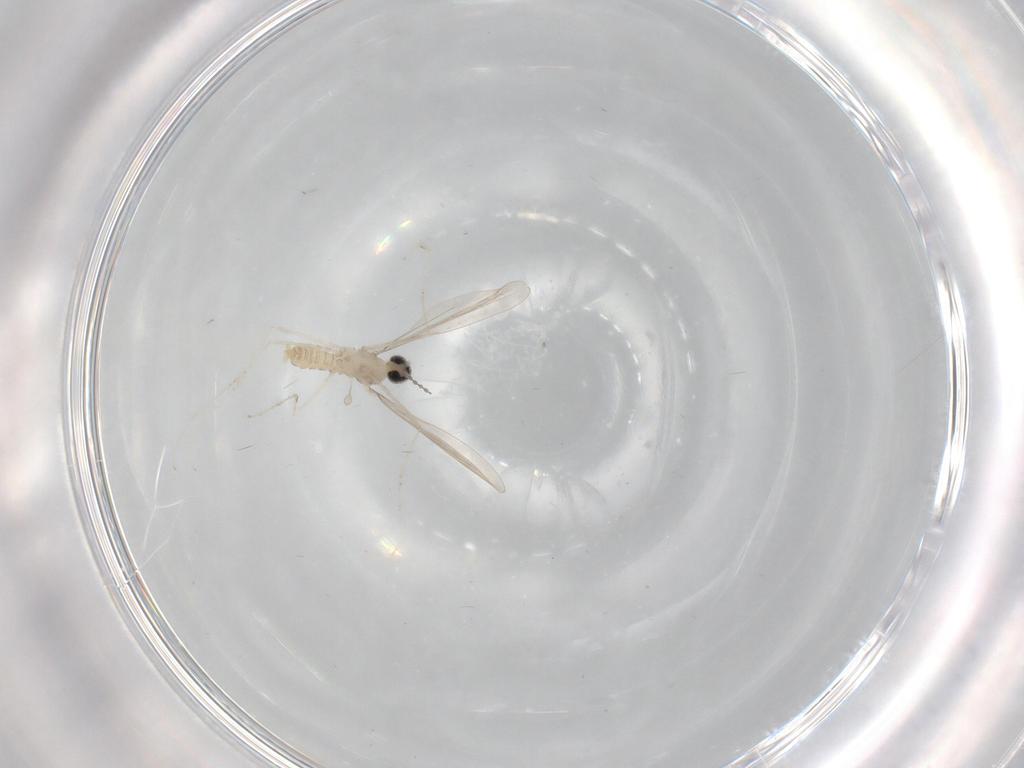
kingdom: Animalia
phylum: Arthropoda
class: Insecta
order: Diptera
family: Cecidomyiidae
